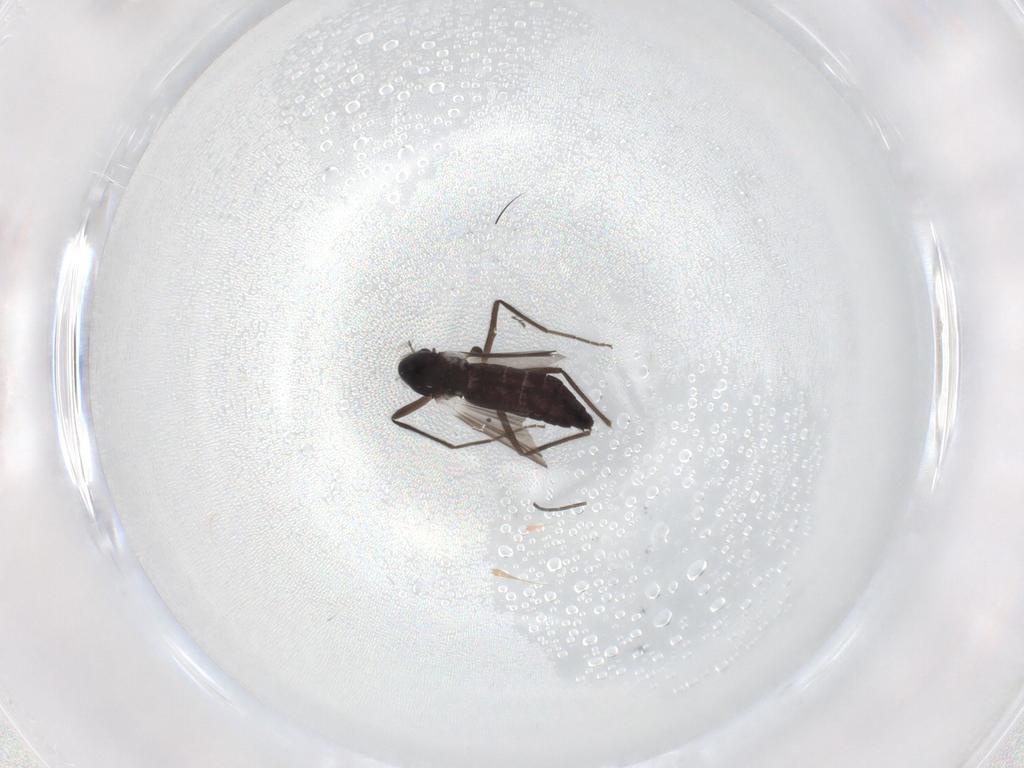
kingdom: Animalia
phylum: Arthropoda
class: Insecta
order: Diptera
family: Chironomidae
